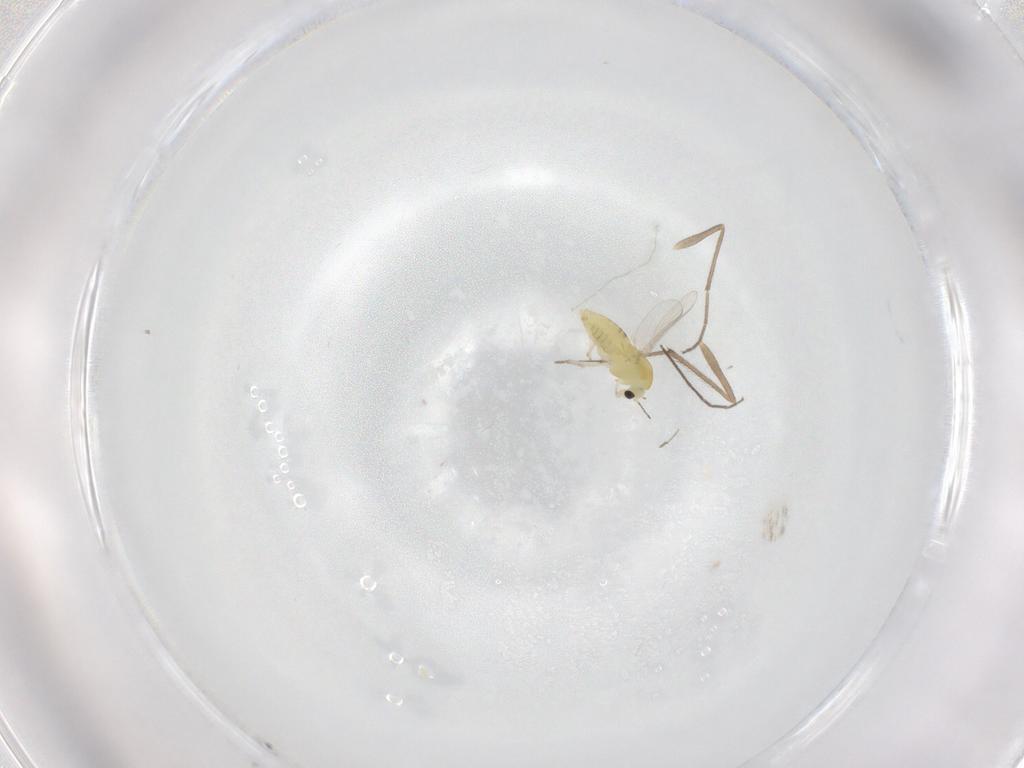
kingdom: Animalia
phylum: Arthropoda
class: Insecta
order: Diptera
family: Chironomidae
